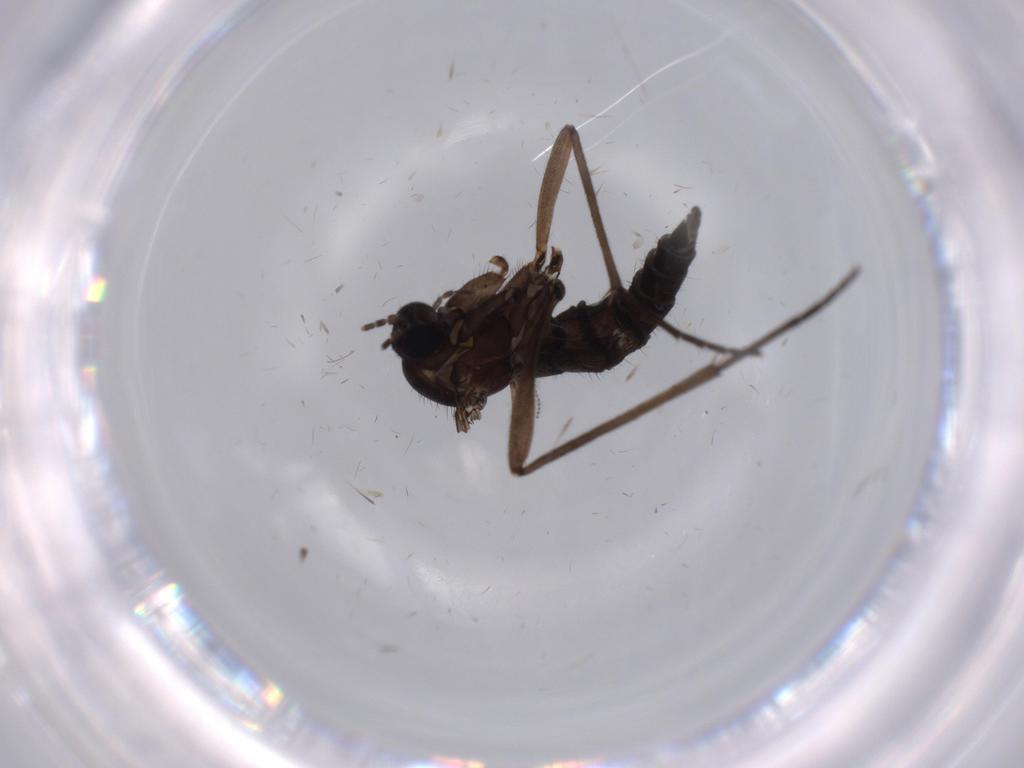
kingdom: Animalia
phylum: Arthropoda
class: Insecta
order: Diptera
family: Sciaridae
